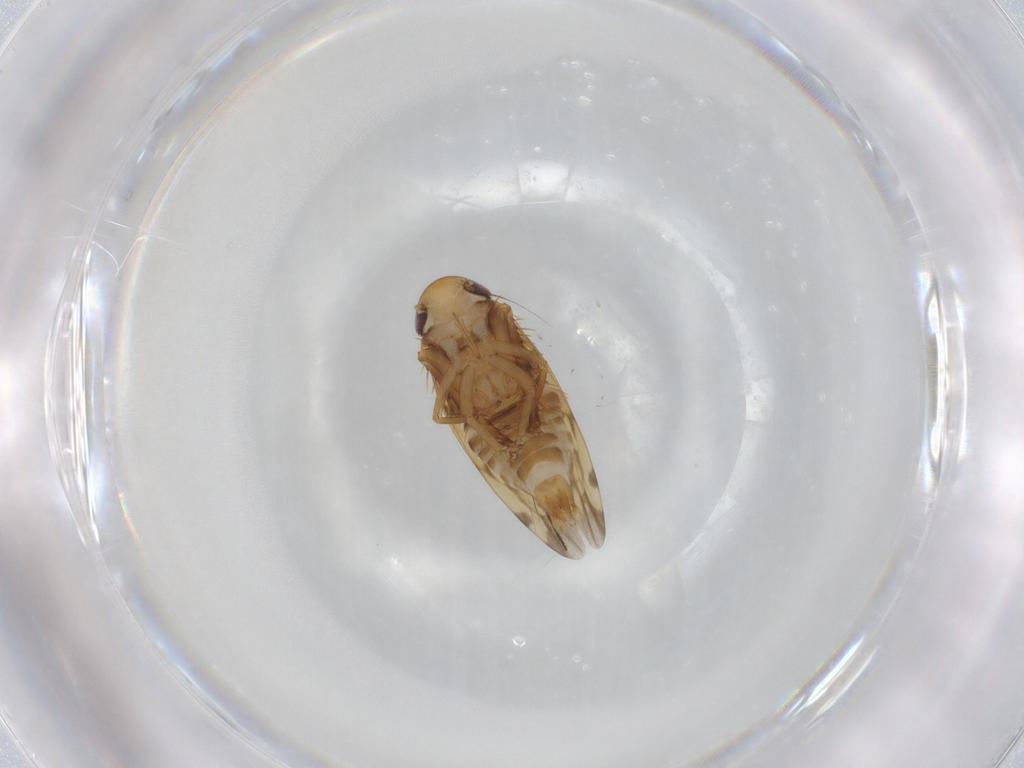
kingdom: Animalia
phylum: Arthropoda
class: Insecta
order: Hemiptera
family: Cicadellidae
